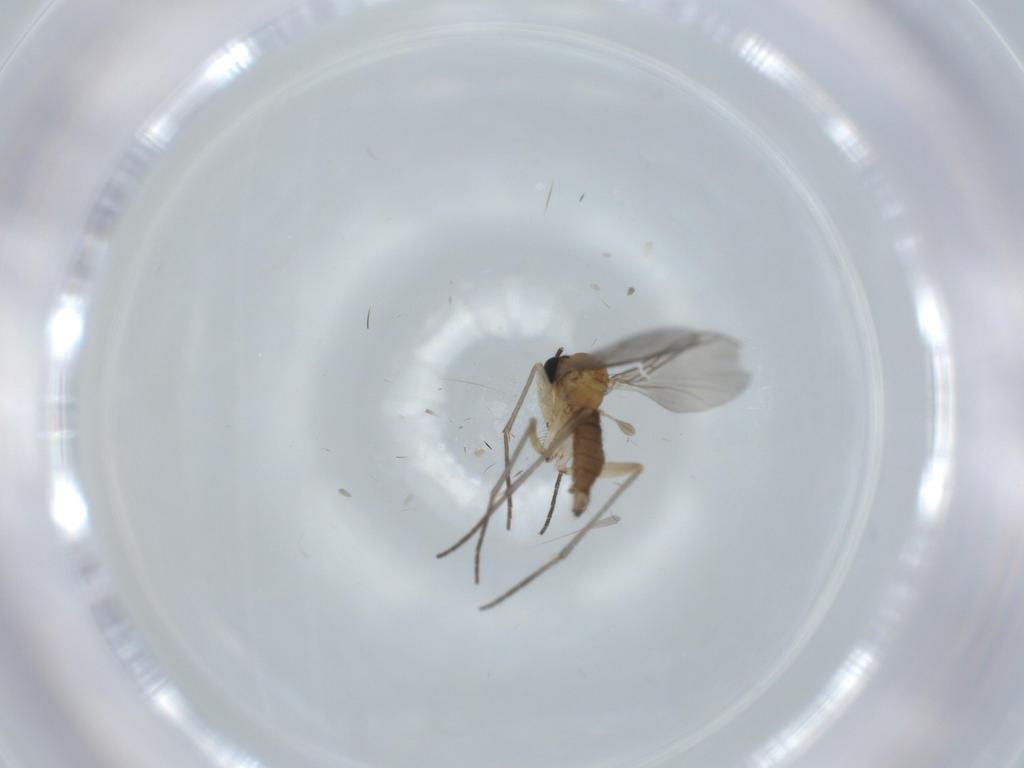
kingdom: Animalia
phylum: Arthropoda
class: Insecta
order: Diptera
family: Sciaridae
